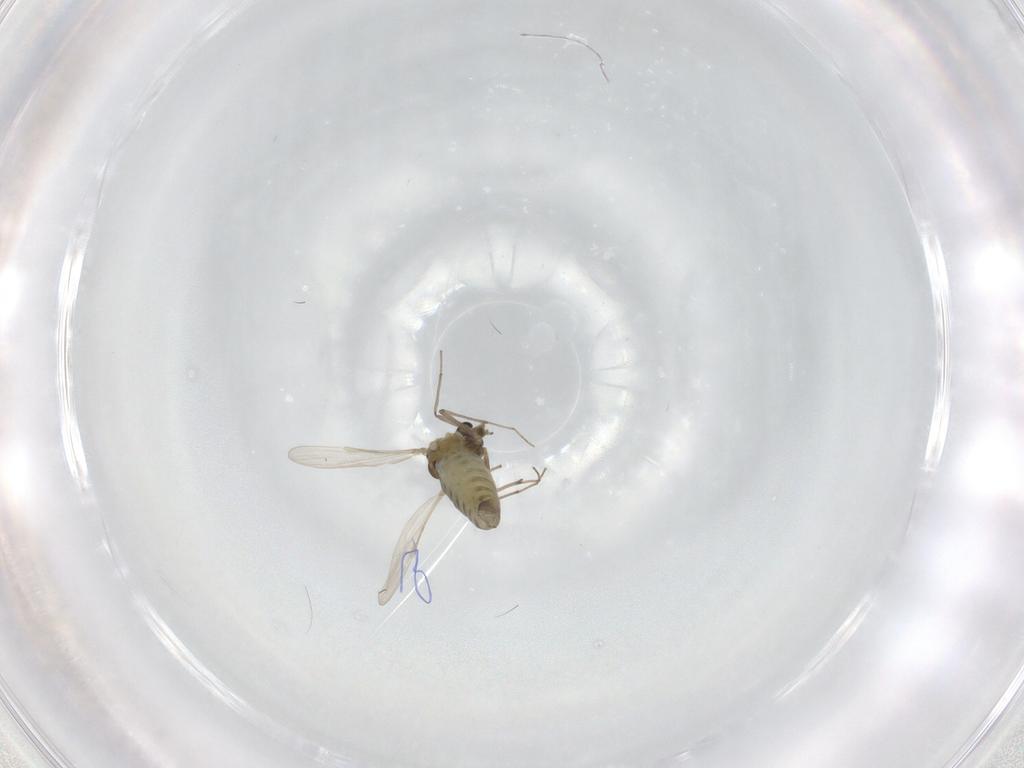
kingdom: Animalia
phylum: Arthropoda
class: Insecta
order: Diptera
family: Chironomidae
